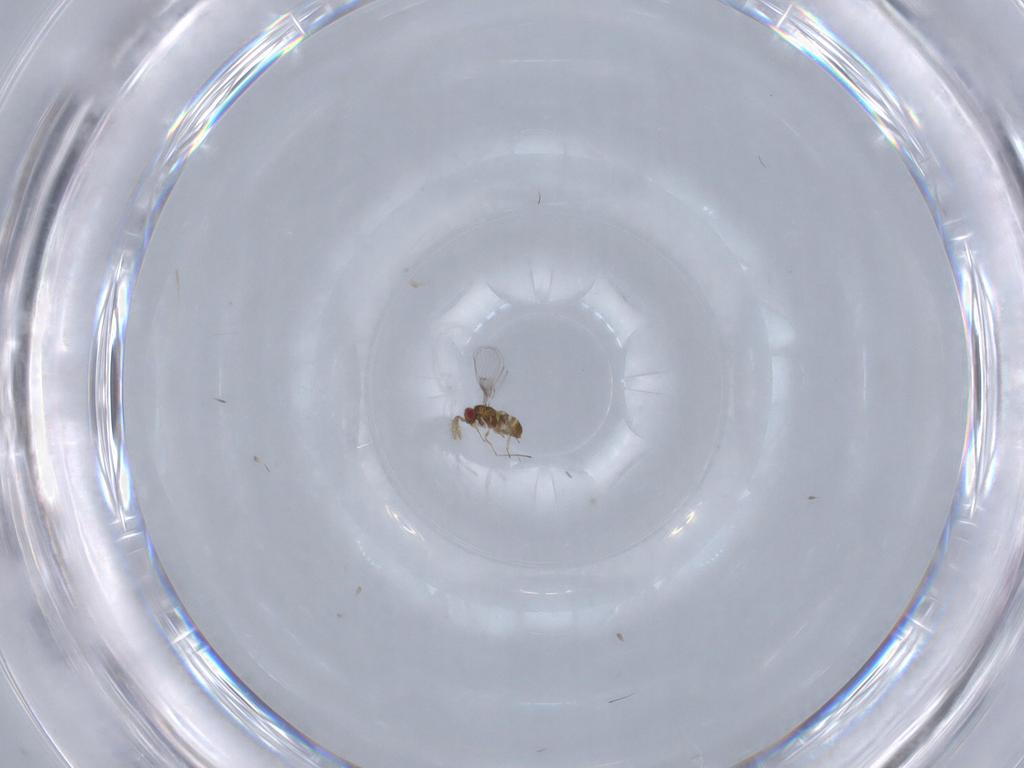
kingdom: Animalia
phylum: Arthropoda
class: Insecta
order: Hymenoptera
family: Trichogrammatidae
